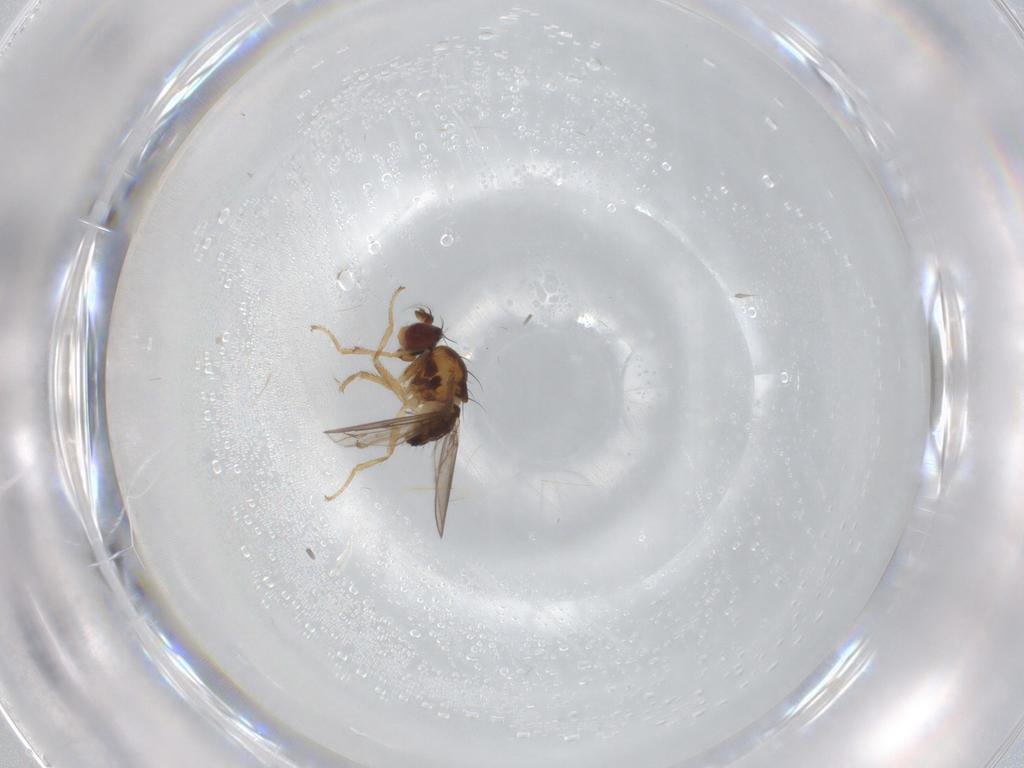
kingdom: Animalia
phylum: Arthropoda
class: Insecta
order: Diptera
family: Ephydridae
